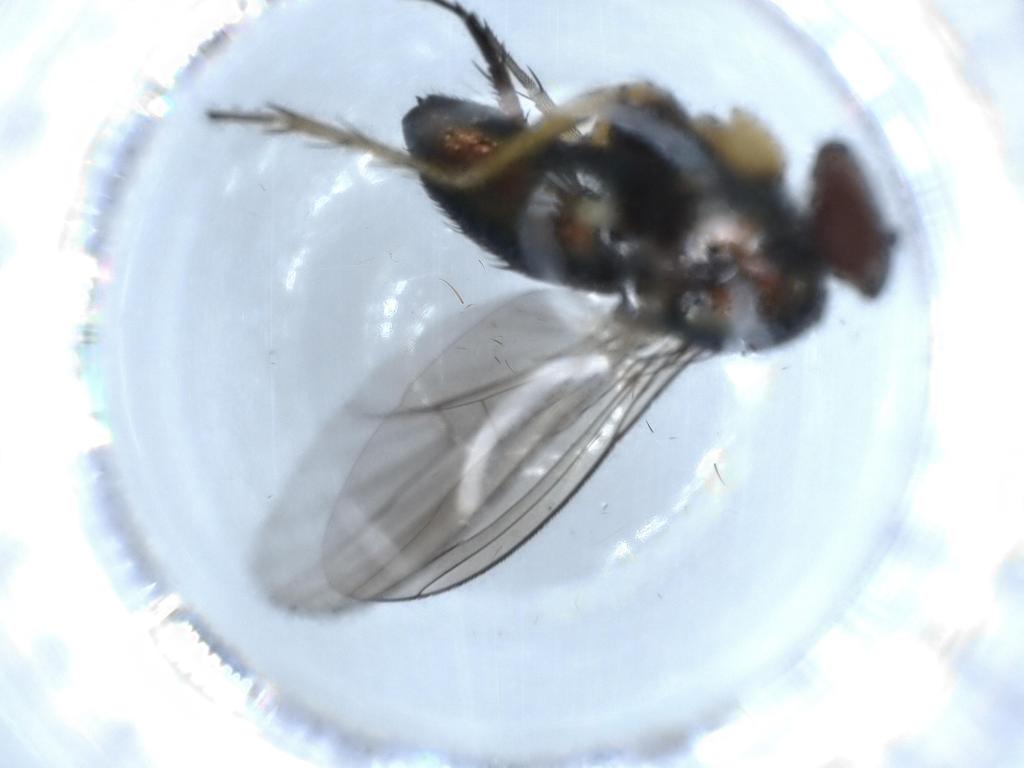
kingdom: Animalia
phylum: Arthropoda
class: Insecta
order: Diptera
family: Dolichopodidae
